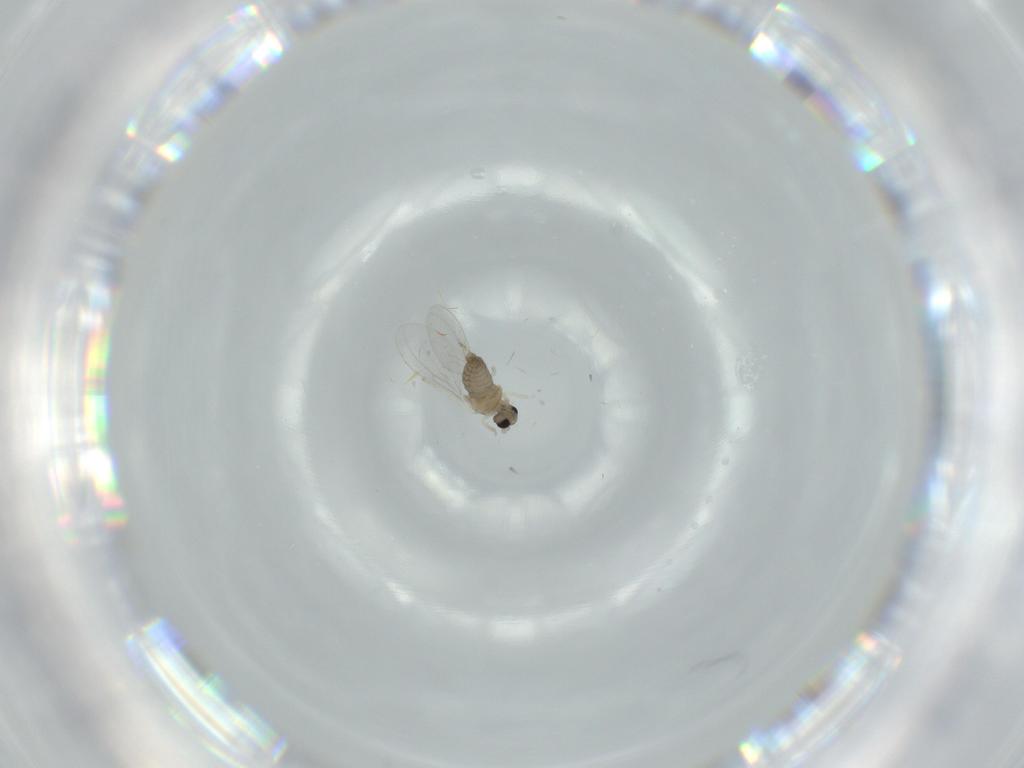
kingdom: Animalia
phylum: Arthropoda
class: Insecta
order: Diptera
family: Cecidomyiidae
